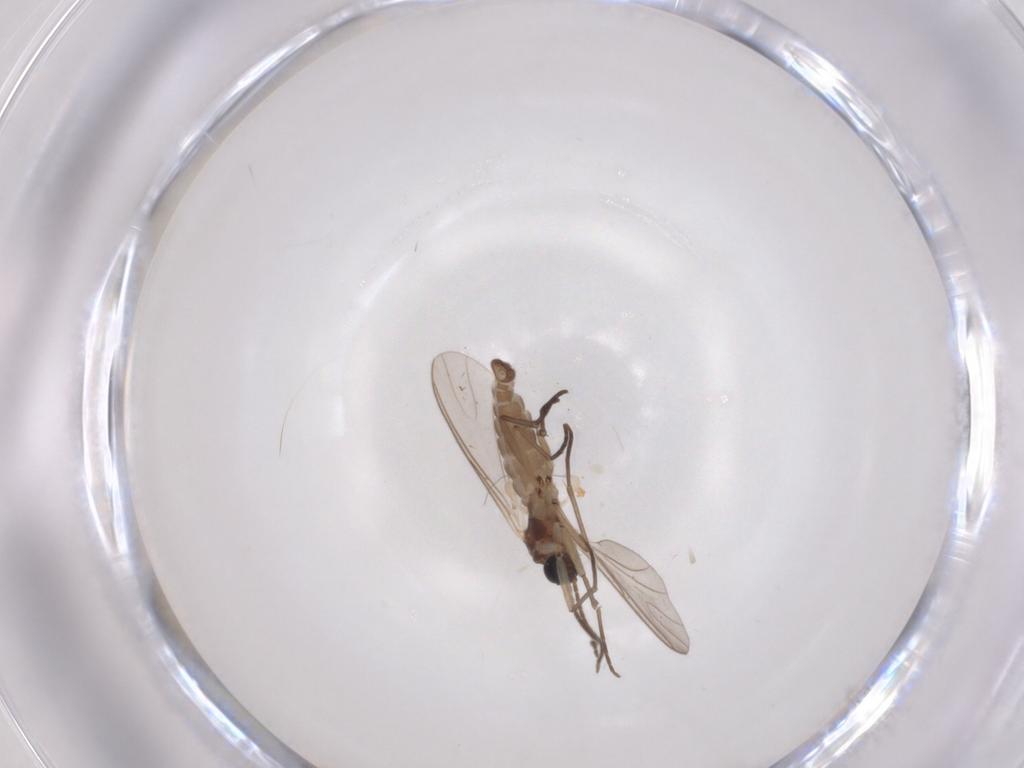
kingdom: Animalia
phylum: Arthropoda
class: Insecta
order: Diptera
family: Sciaridae
